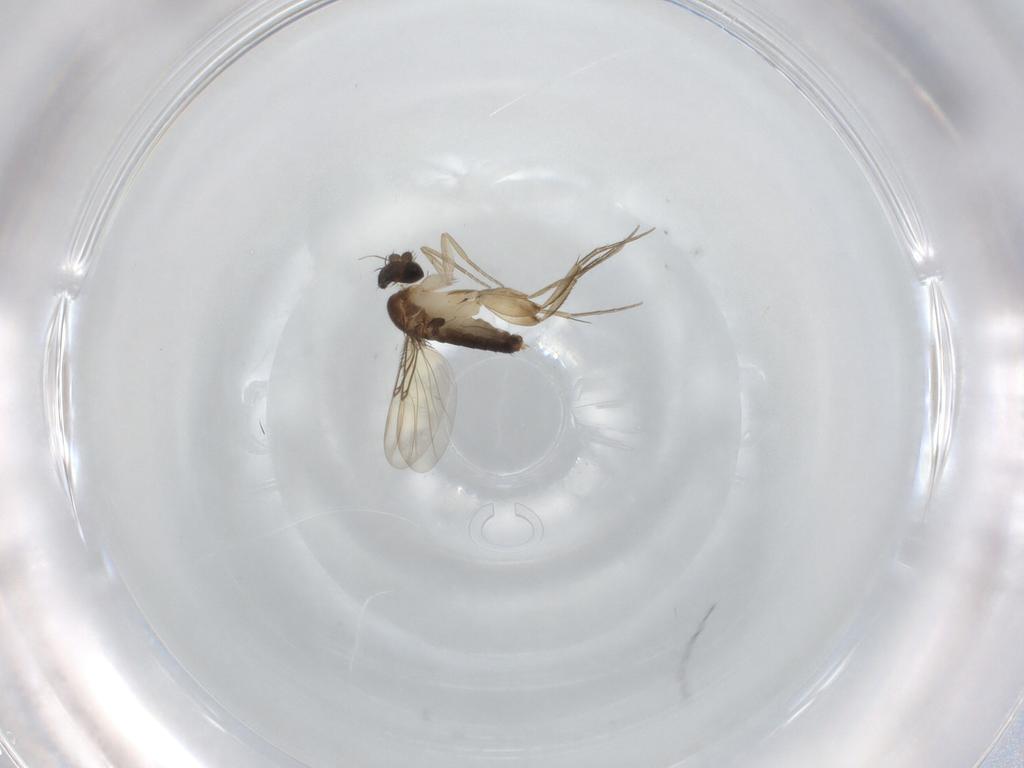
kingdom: Animalia
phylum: Arthropoda
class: Insecta
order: Diptera
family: Phoridae
